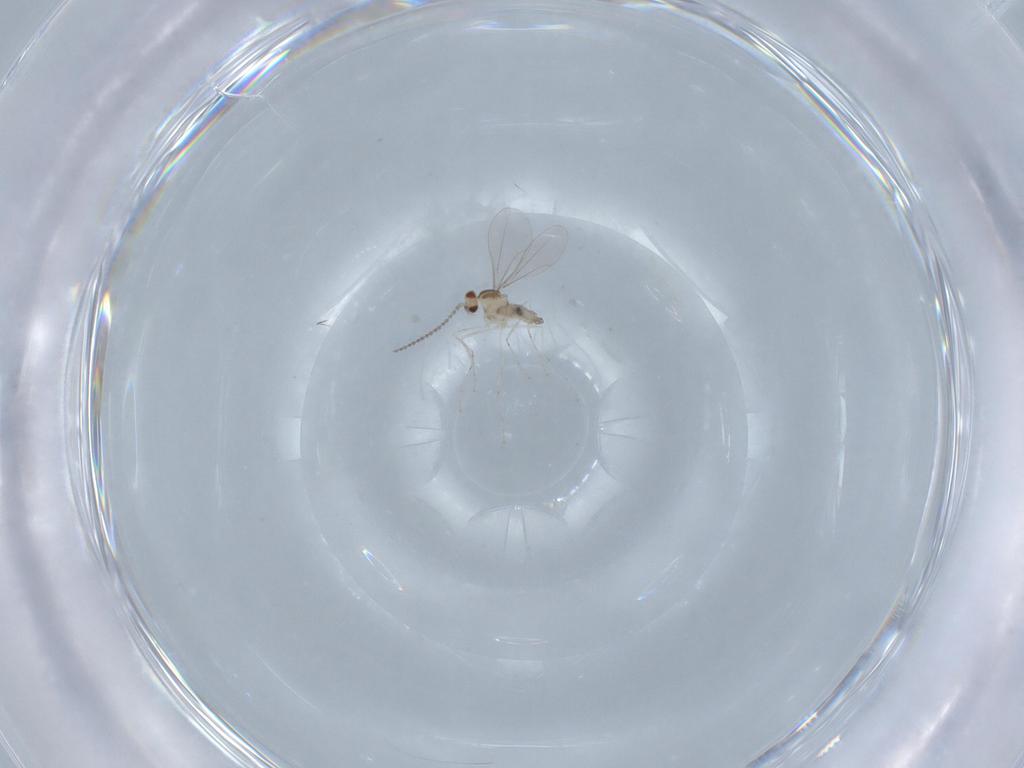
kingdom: Animalia
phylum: Arthropoda
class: Insecta
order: Diptera
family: Cecidomyiidae
